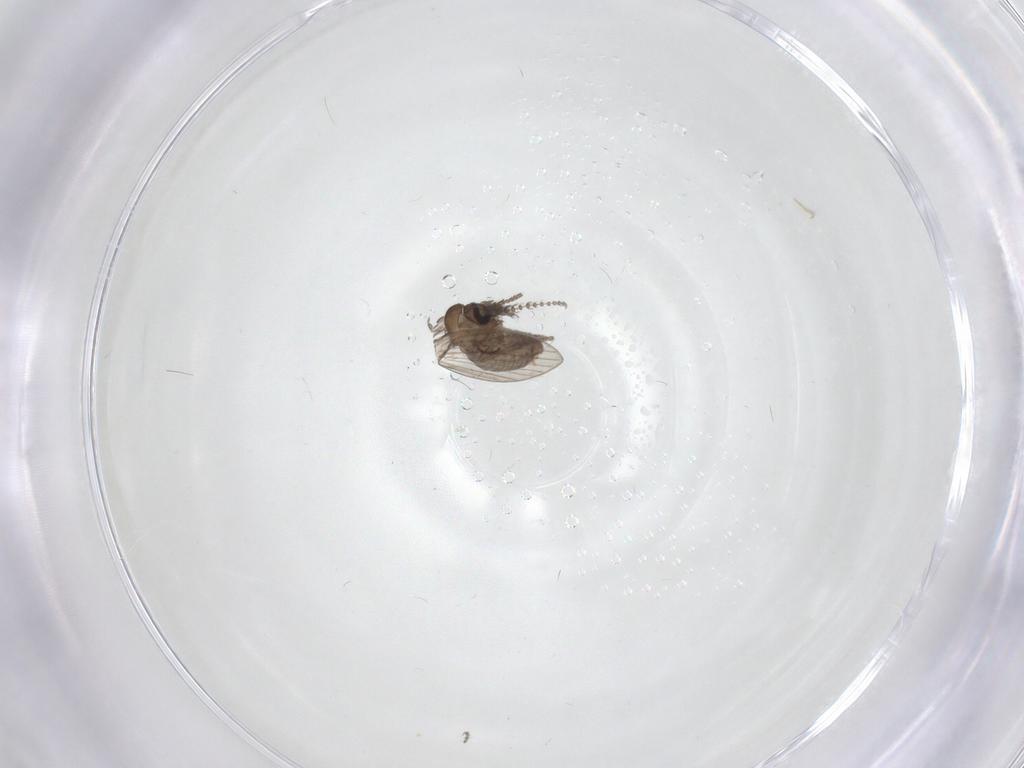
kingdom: Animalia
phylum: Arthropoda
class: Insecta
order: Diptera
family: Psychodidae
